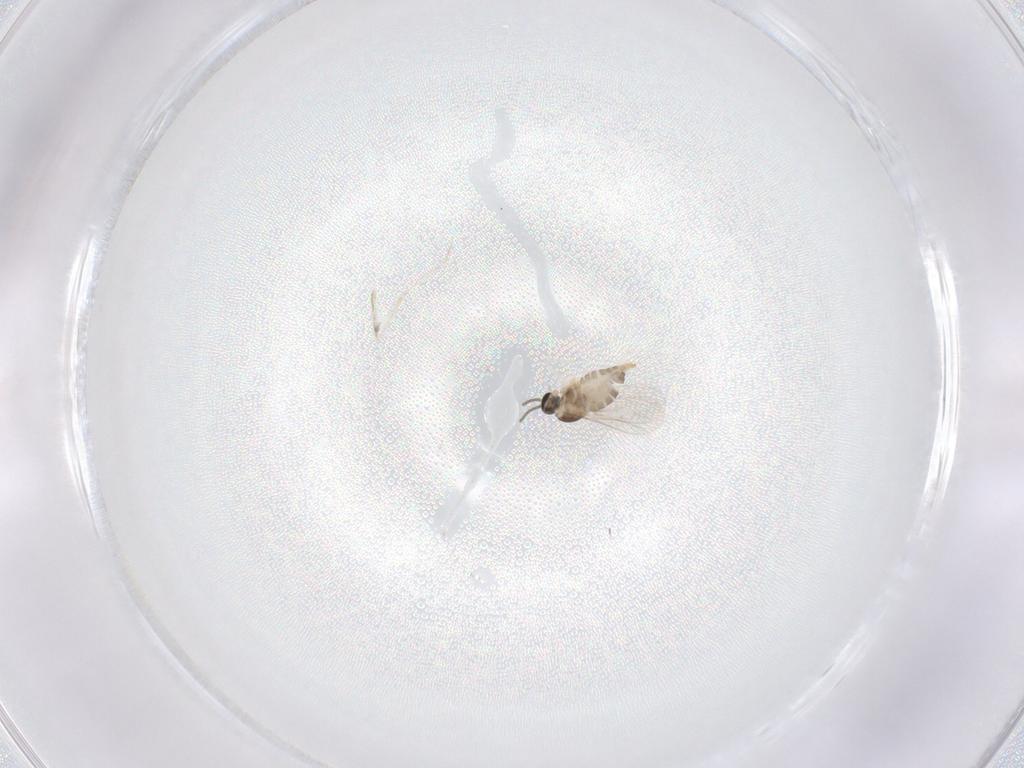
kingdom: Animalia
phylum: Arthropoda
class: Insecta
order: Diptera
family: Cecidomyiidae
